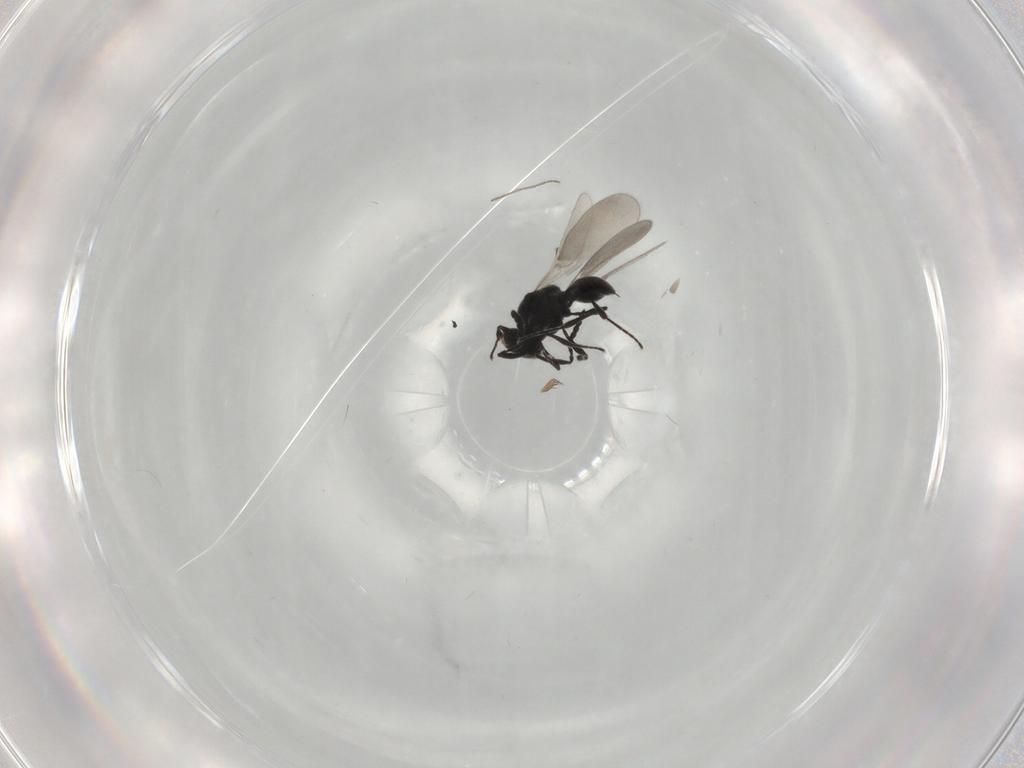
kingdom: Animalia
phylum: Arthropoda
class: Insecta
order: Hymenoptera
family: Platygastridae
